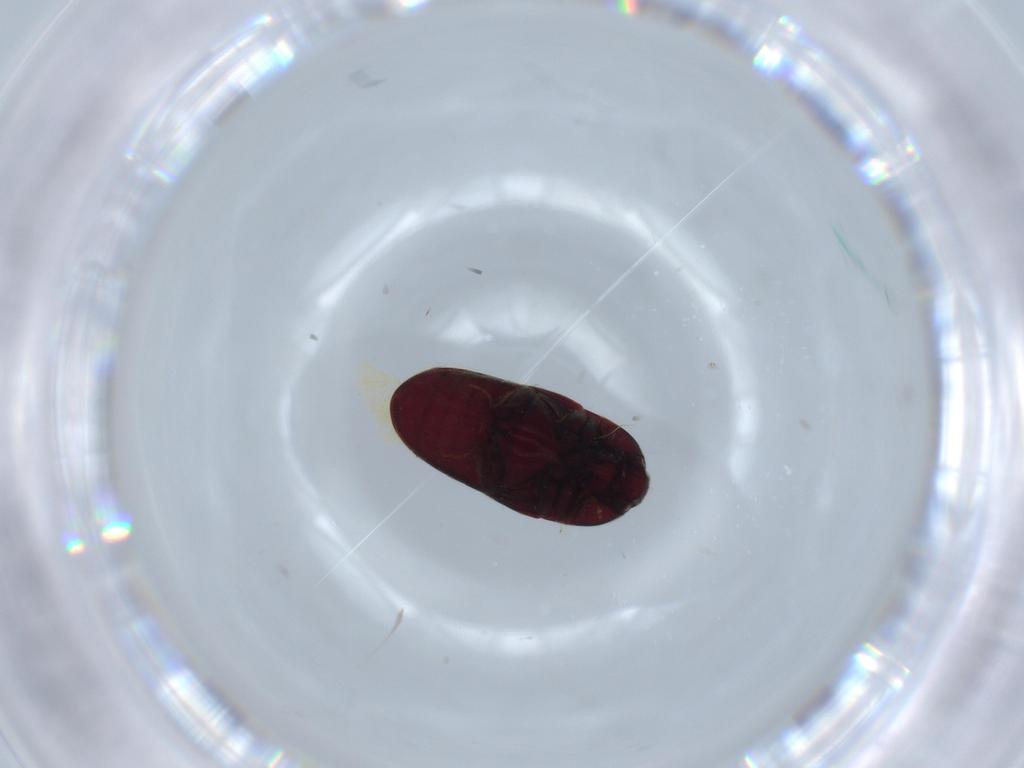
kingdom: Animalia
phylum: Arthropoda
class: Insecta
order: Coleoptera
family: Throscidae
